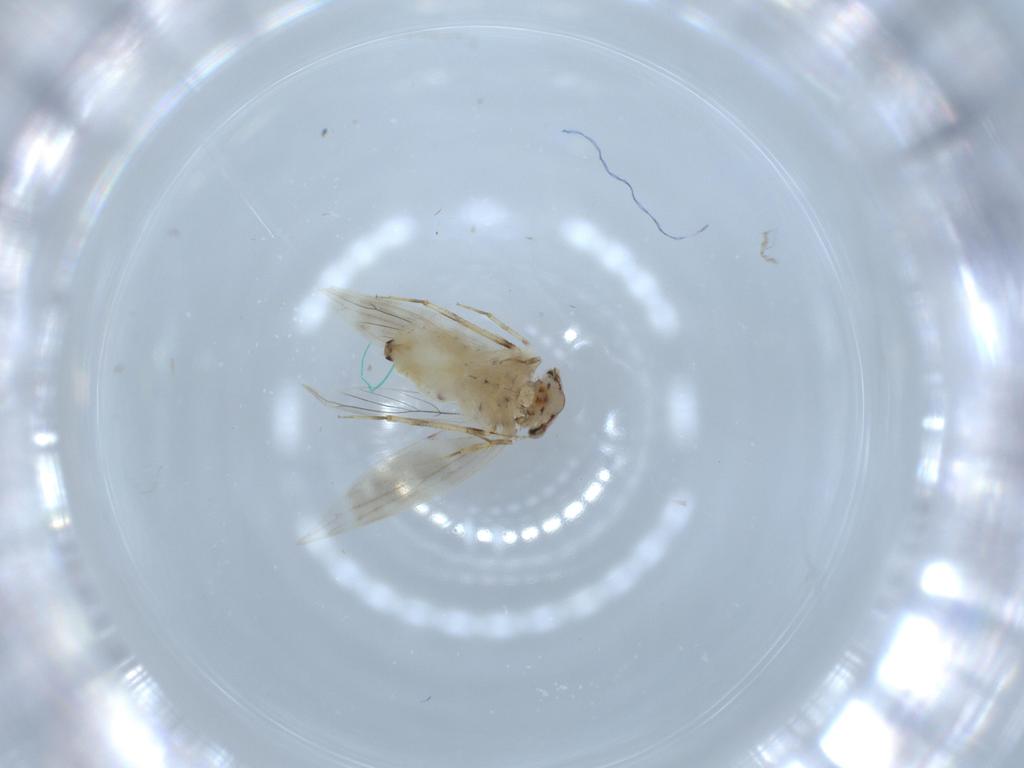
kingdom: Animalia
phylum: Arthropoda
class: Insecta
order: Psocodea
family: Lepidopsocidae
